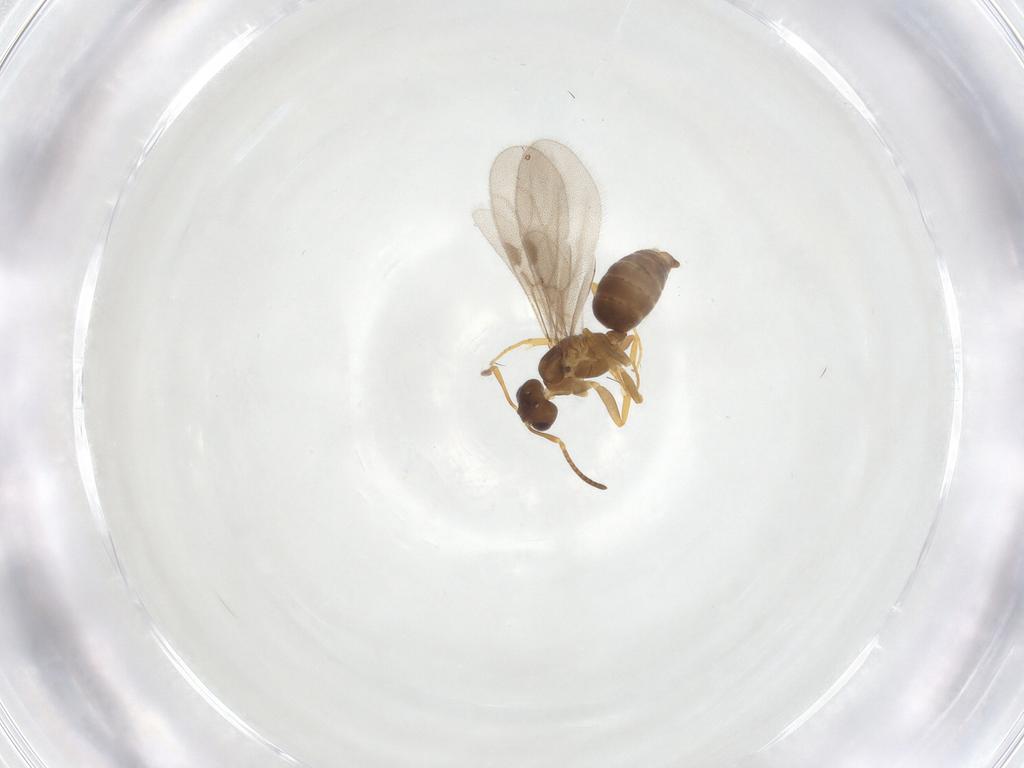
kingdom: Animalia
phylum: Arthropoda
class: Insecta
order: Hymenoptera
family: Formicidae
